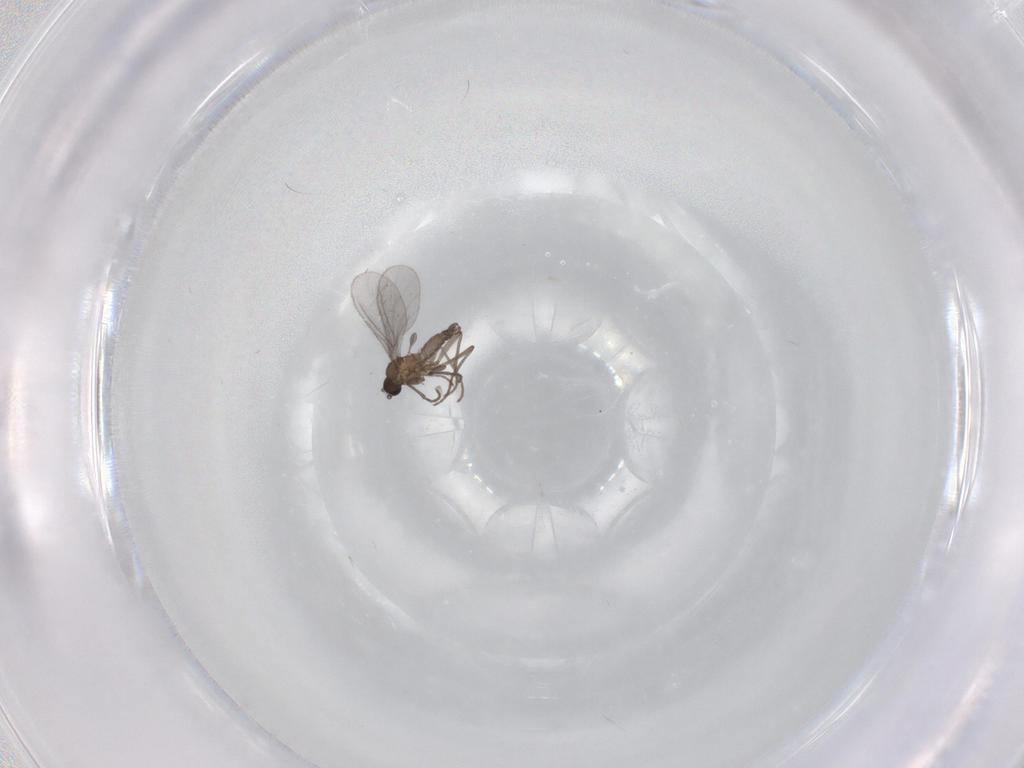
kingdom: Animalia
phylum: Arthropoda
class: Insecta
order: Diptera
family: Sciaridae
